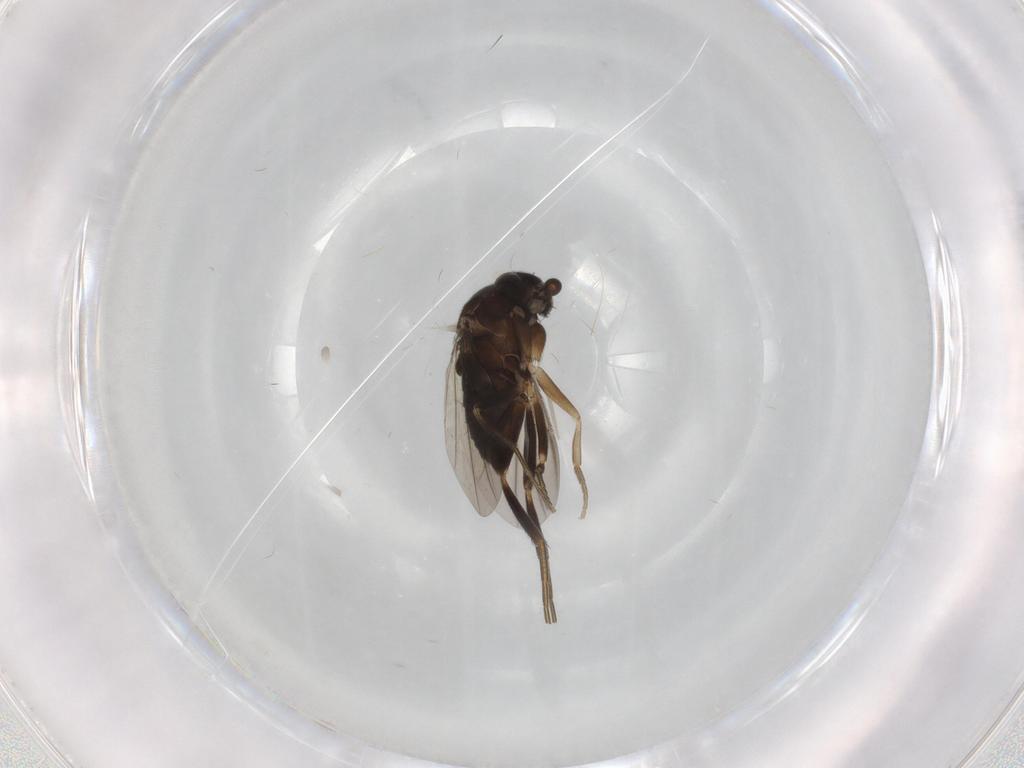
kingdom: Animalia
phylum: Arthropoda
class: Insecta
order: Diptera
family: Phoridae
